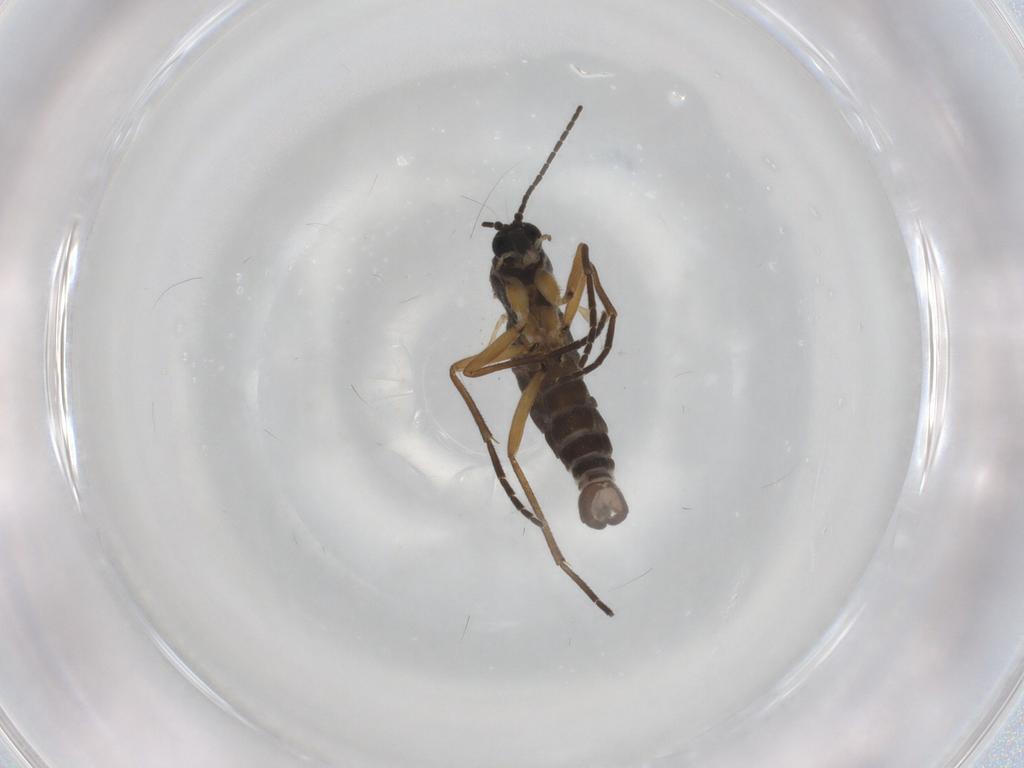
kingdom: Animalia
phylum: Arthropoda
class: Insecta
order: Diptera
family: Sciaridae
